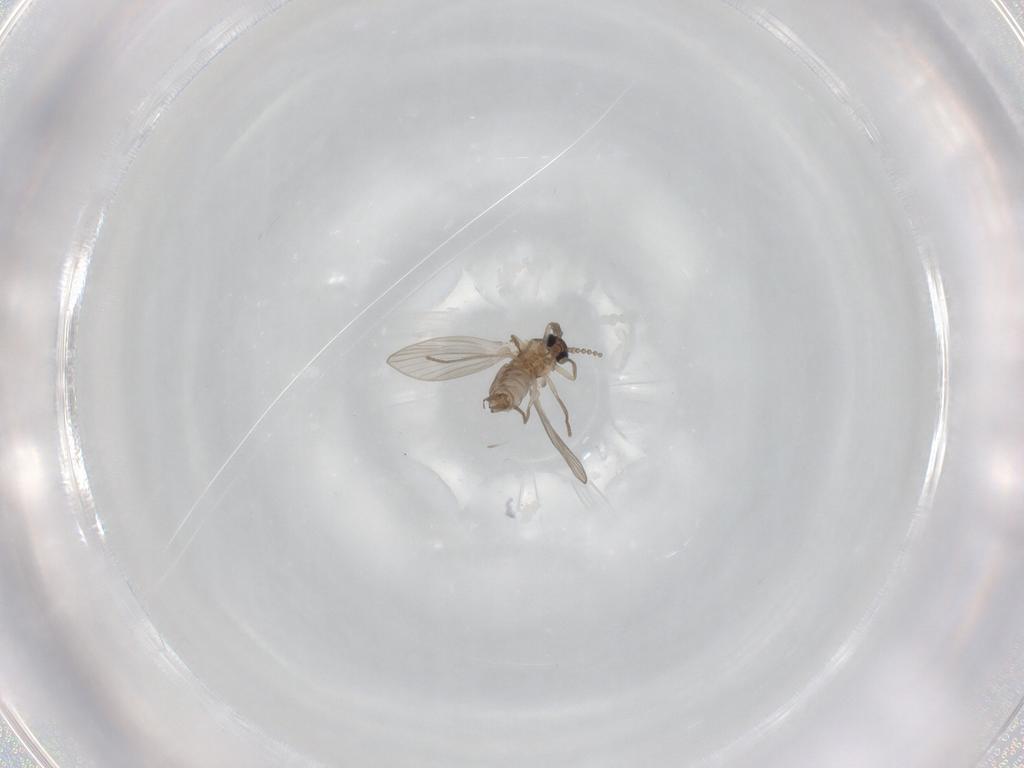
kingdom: Animalia
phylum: Arthropoda
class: Insecta
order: Diptera
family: Psychodidae
